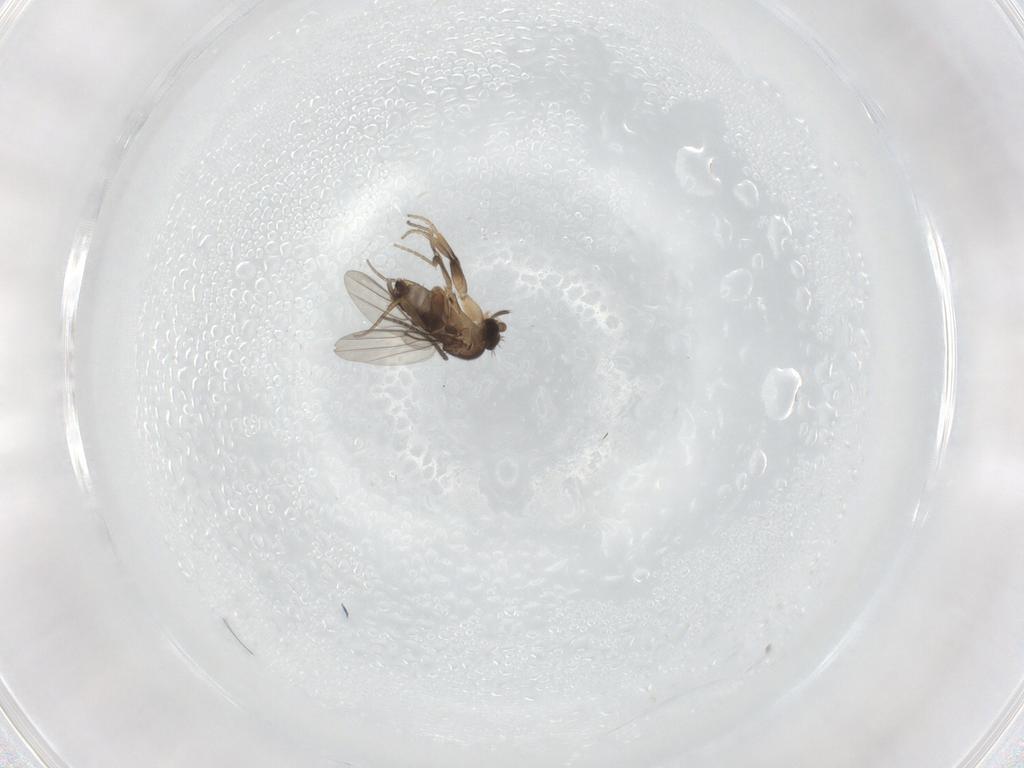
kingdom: Animalia
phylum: Arthropoda
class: Insecta
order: Diptera
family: Sciaridae
